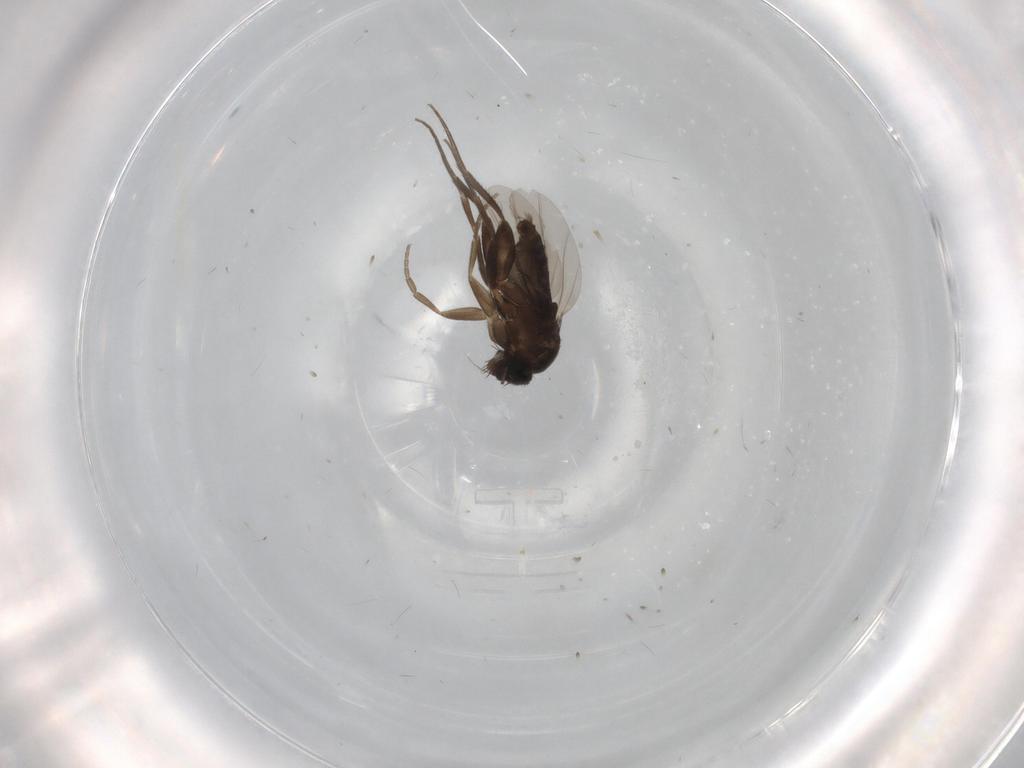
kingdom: Animalia
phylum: Arthropoda
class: Insecta
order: Diptera
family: Phoridae
